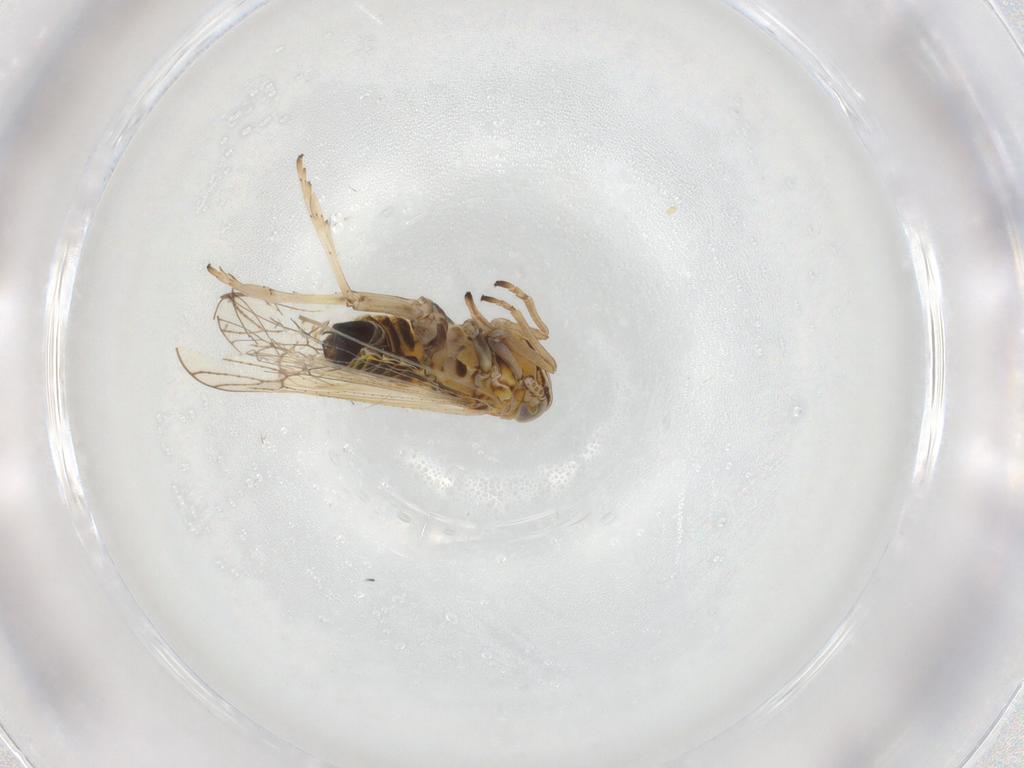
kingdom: Animalia
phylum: Arthropoda
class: Insecta
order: Hemiptera
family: Delphacidae
